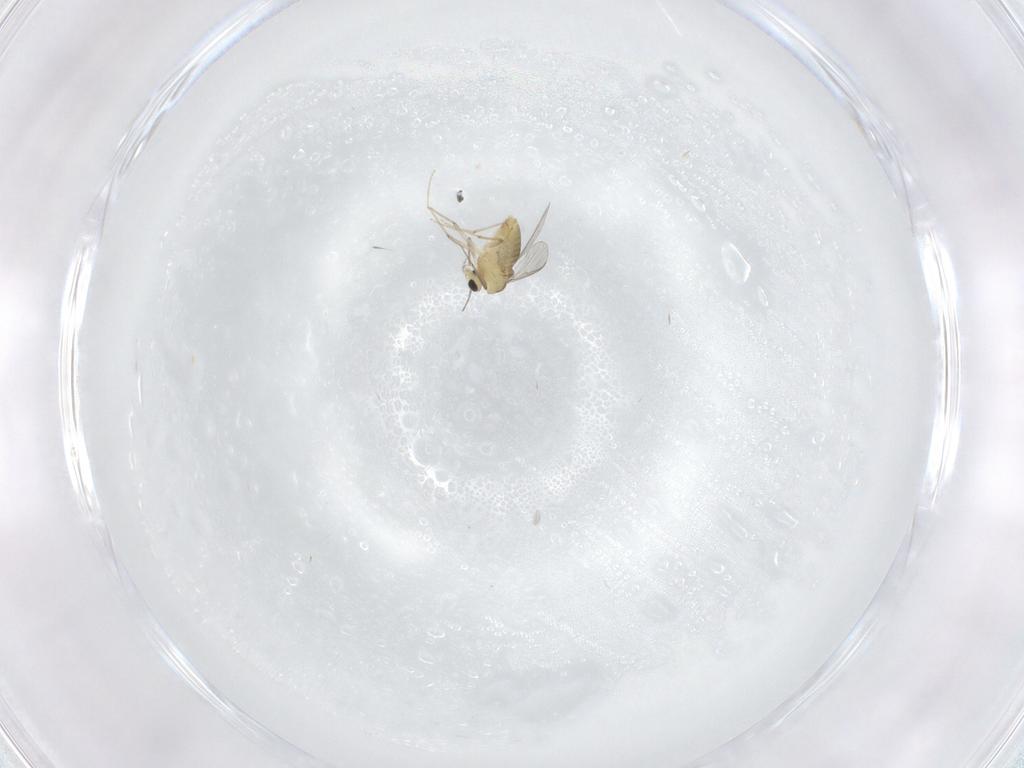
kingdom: Animalia
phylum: Arthropoda
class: Insecta
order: Diptera
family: Chironomidae
